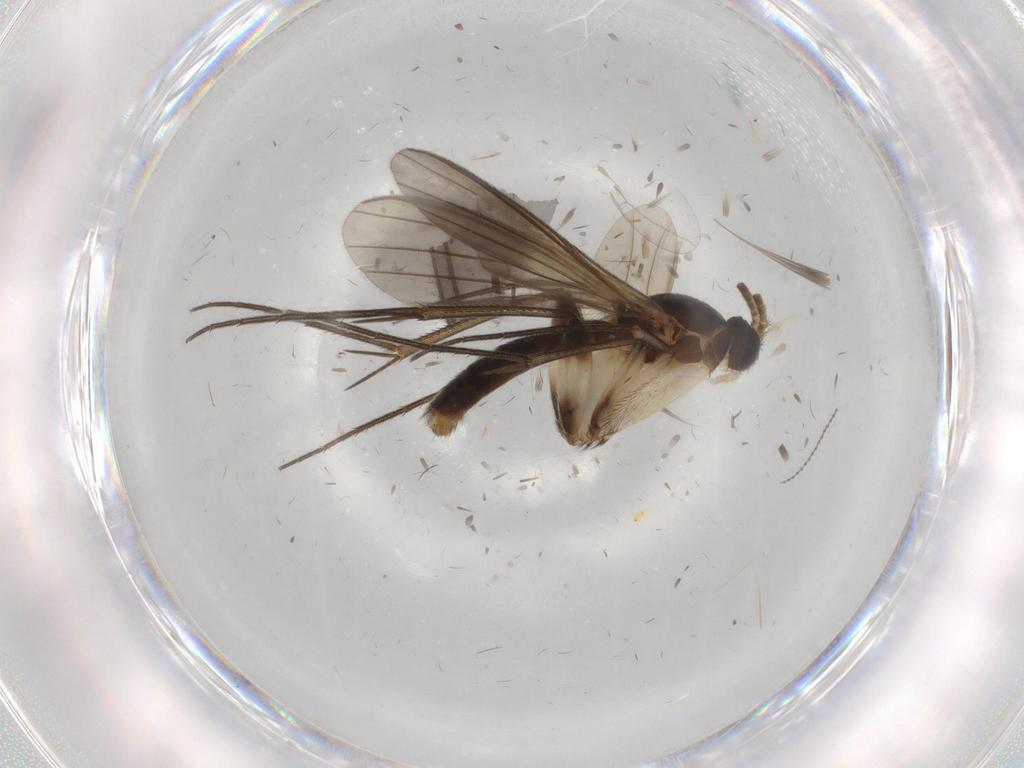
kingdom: Animalia
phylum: Arthropoda
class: Insecta
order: Diptera
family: Mycetophilidae
